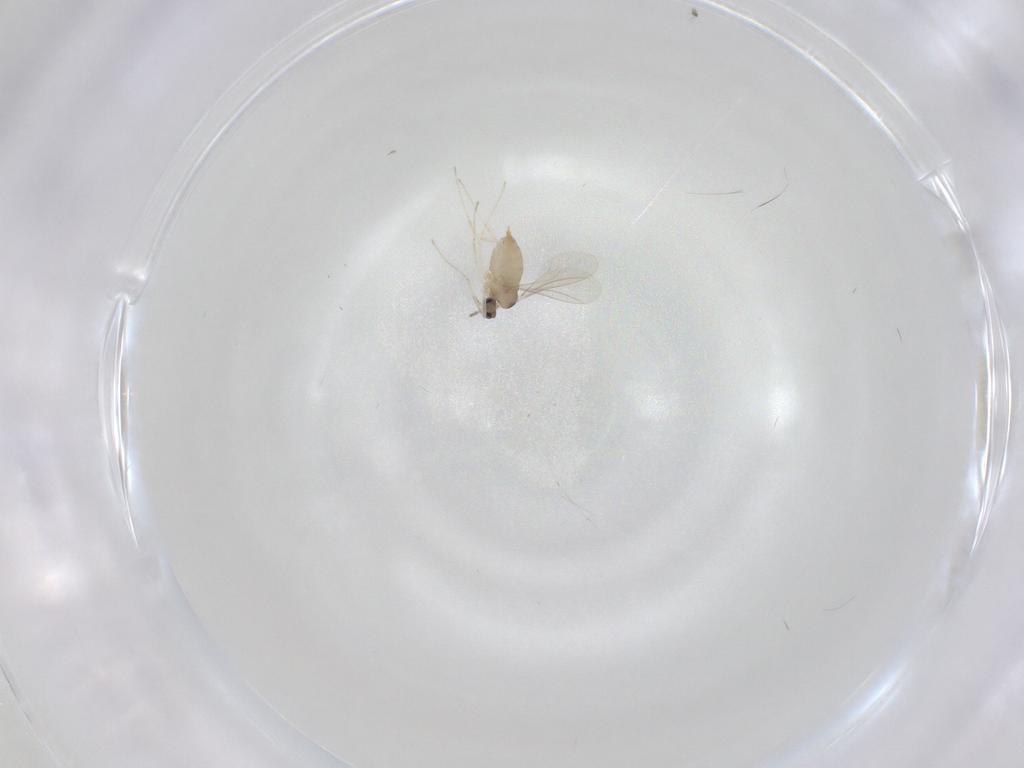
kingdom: Animalia
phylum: Arthropoda
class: Insecta
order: Diptera
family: Cecidomyiidae
